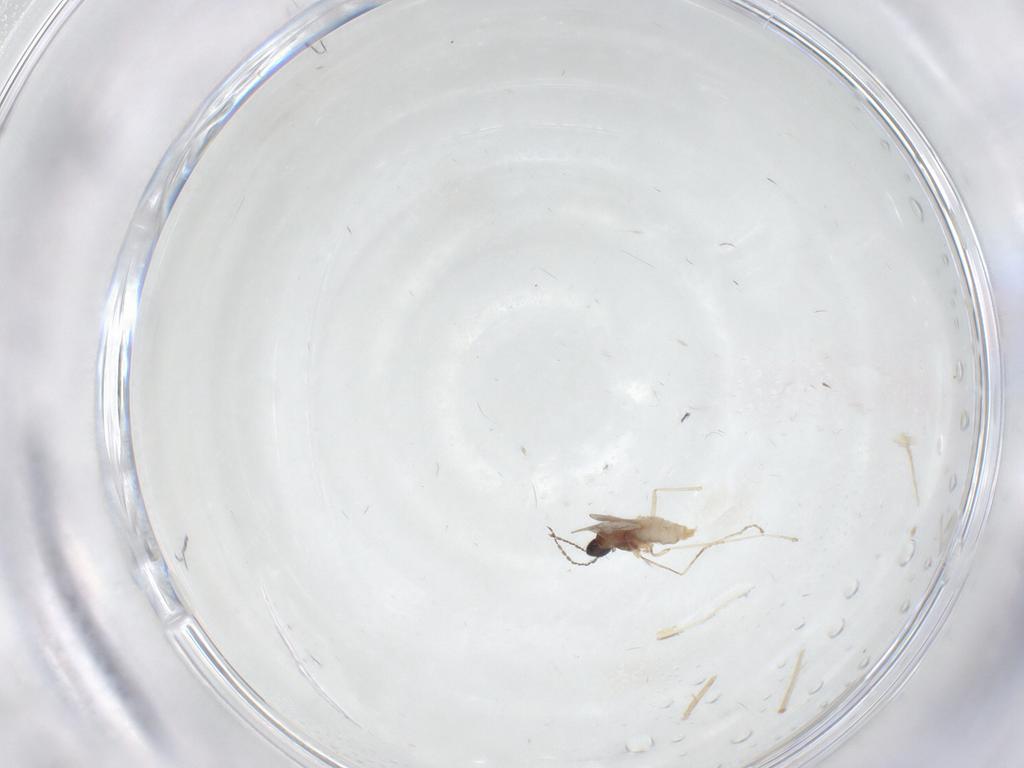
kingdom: Animalia
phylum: Arthropoda
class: Insecta
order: Diptera
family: Cecidomyiidae
